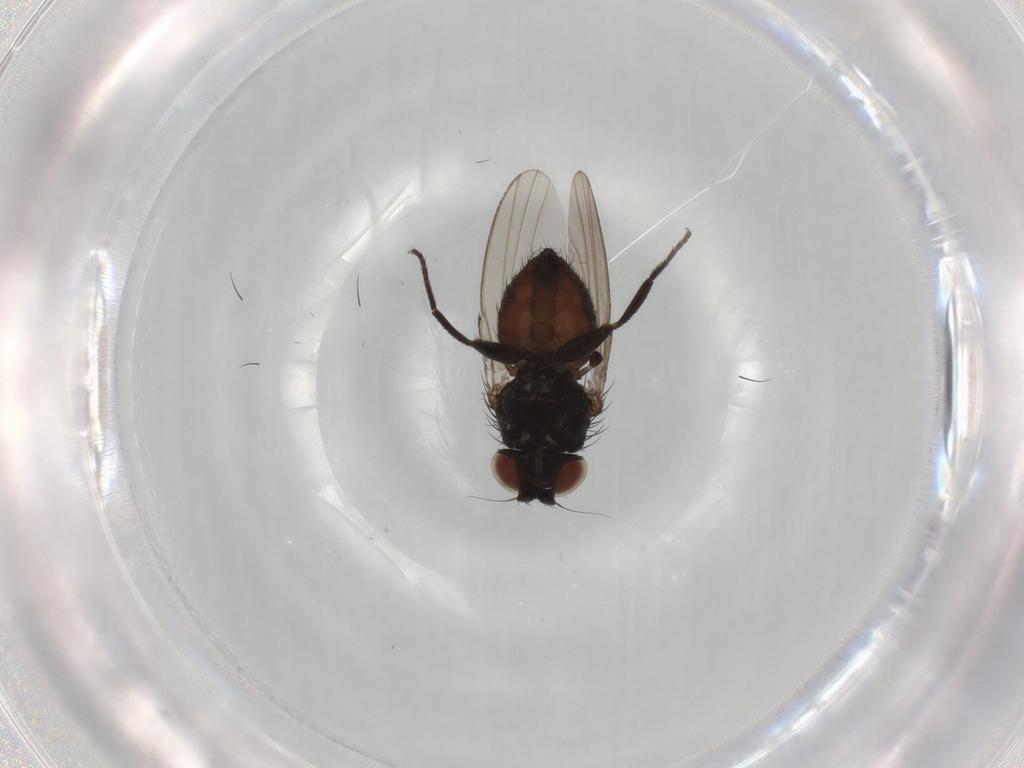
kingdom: Animalia
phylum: Arthropoda
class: Insecta
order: Diptera
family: Milichiidae
